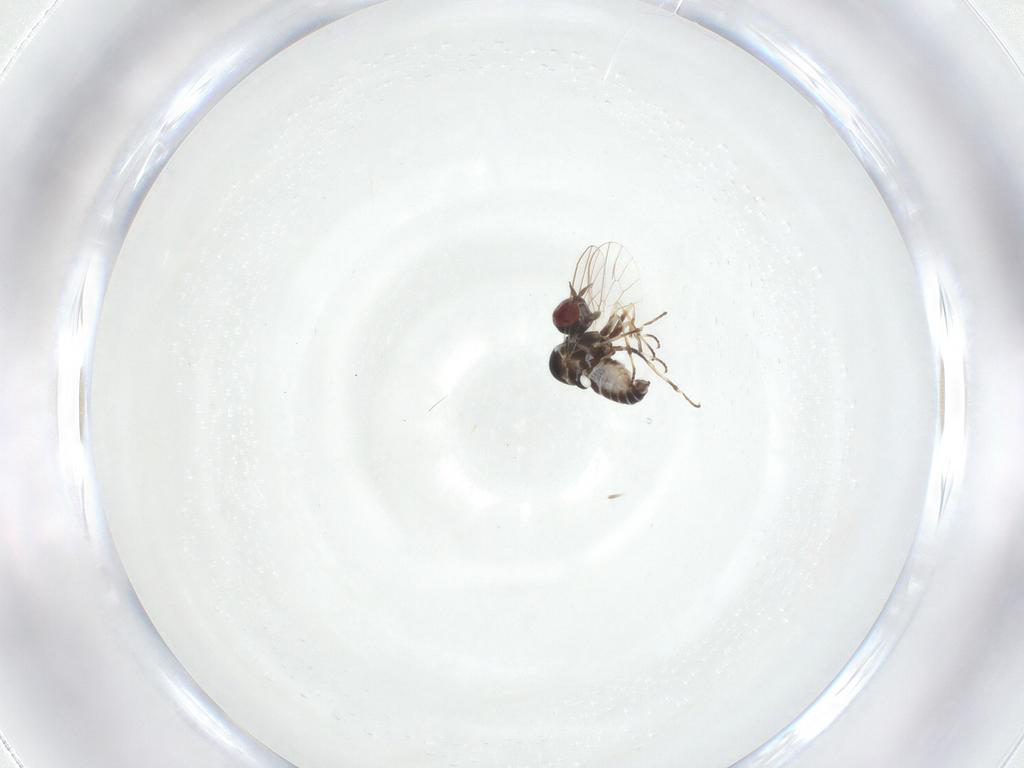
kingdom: Animalia
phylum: Arthropoda
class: Insecta
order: Diptera
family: Mythicomyiidae
